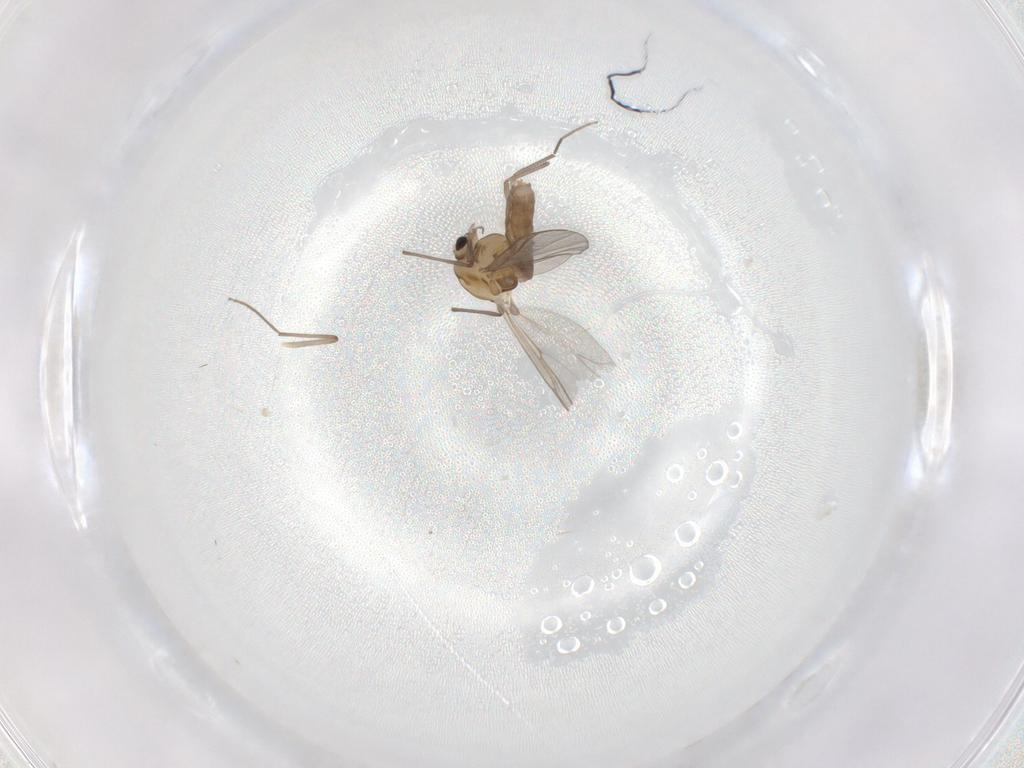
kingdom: Animalia
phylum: Arthropoda
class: Insecta
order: Diptera
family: Chironomidae
